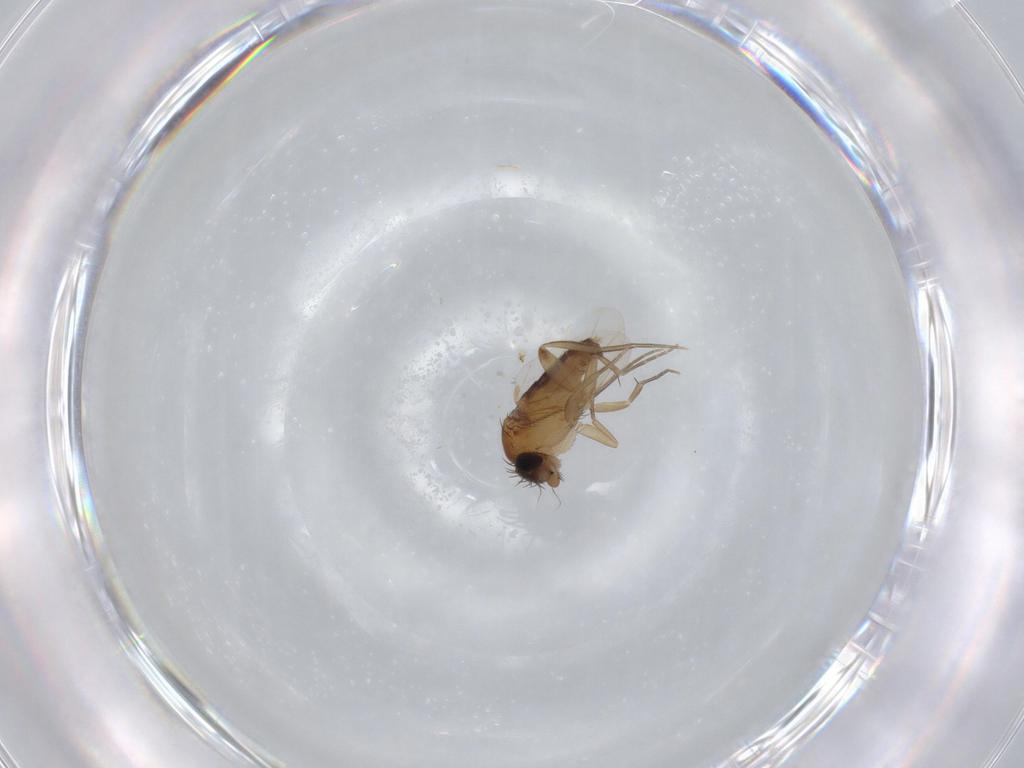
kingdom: Animalia
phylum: Arthropoda
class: Insecta
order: Diptera
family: Phoridae
